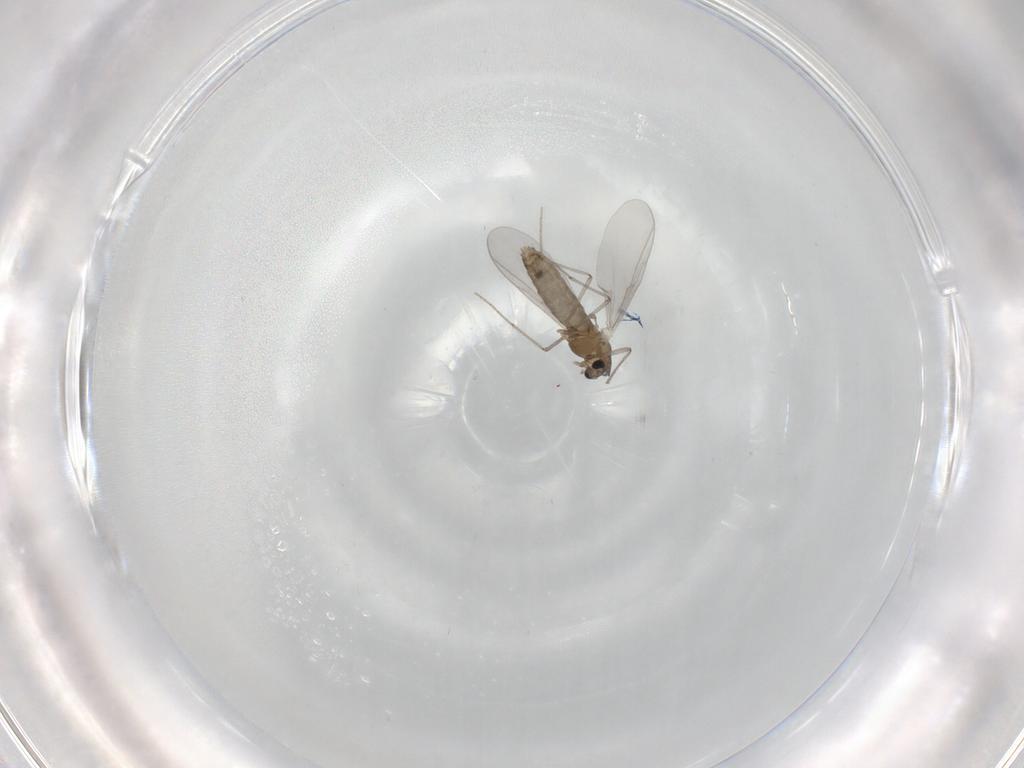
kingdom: Animalia
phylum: Arthropoda
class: Insecta
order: Diptera
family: Chironomidae
